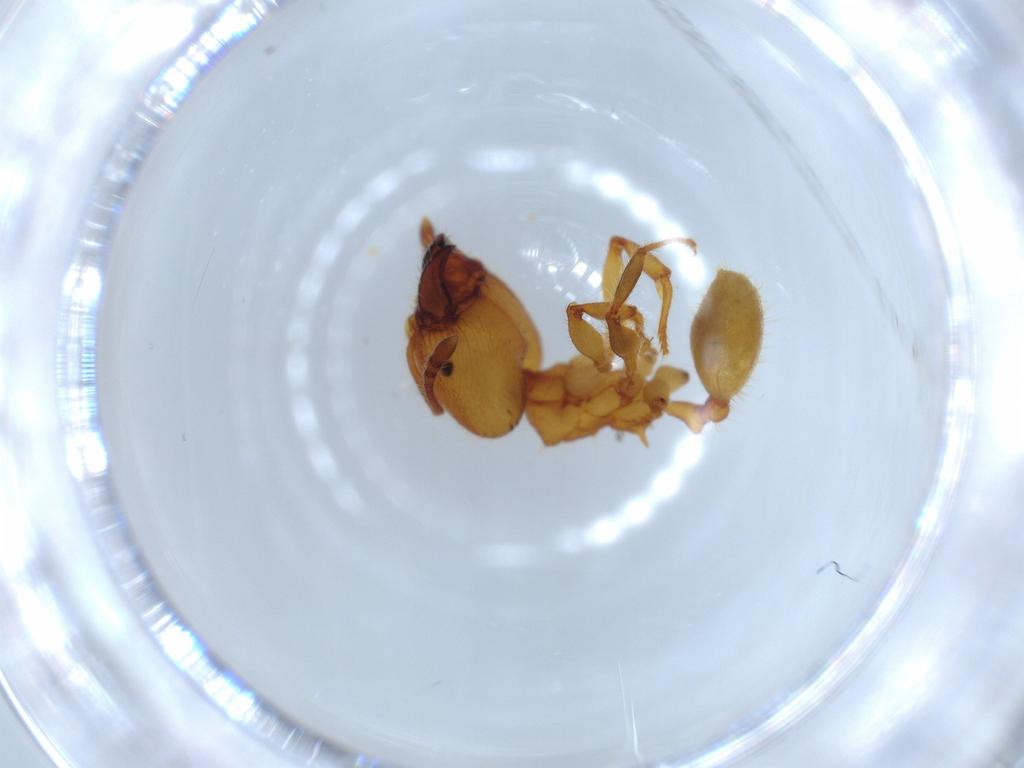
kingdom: Animalia
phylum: Arthropoda
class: Insecta
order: Hymenoptera
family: Formicidae
